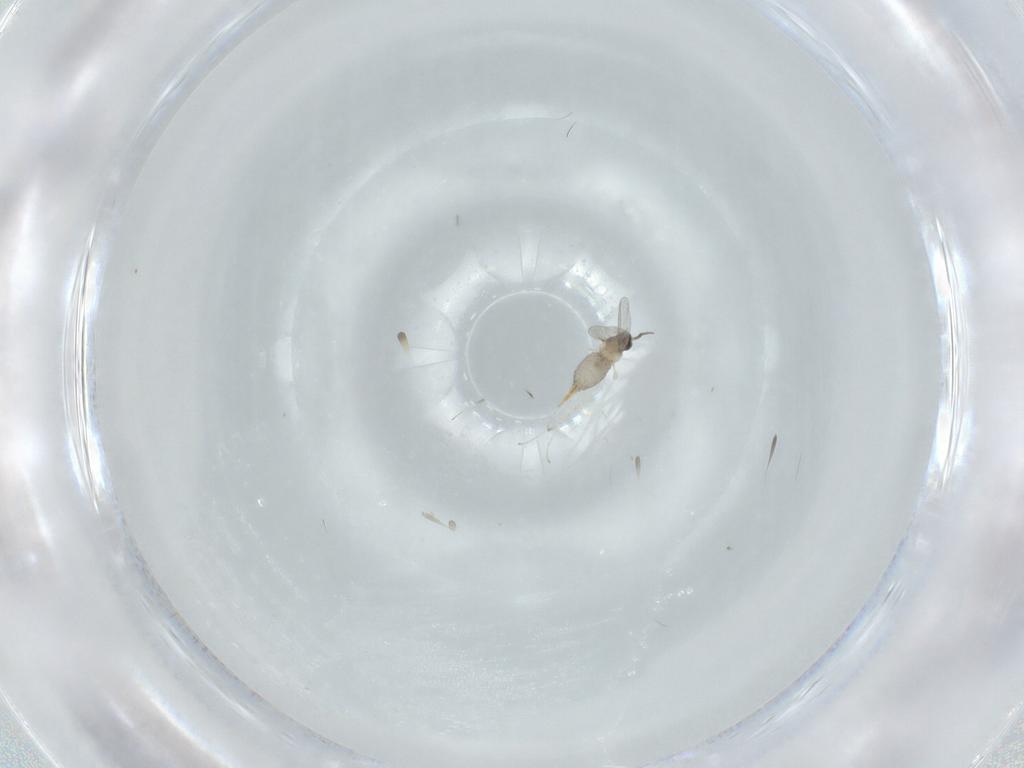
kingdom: Animalia
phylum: Arthropoda
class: Insecta
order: Diptera
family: Cecidomyiidae
